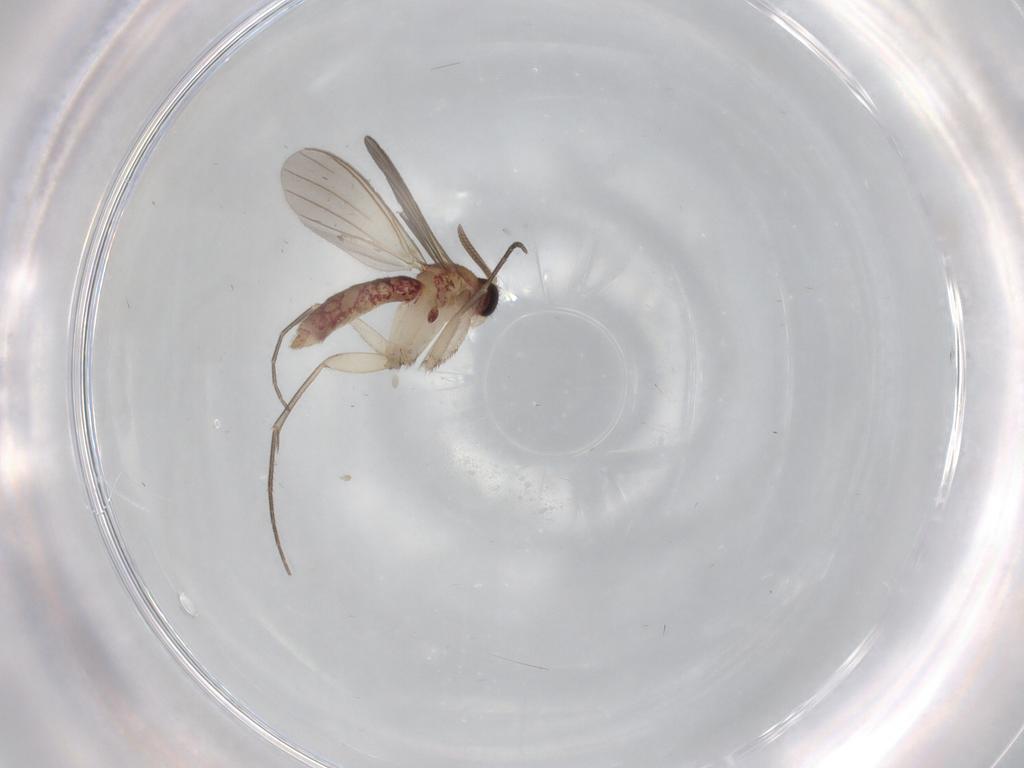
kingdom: Animalia
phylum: Arthropoda
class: Insecta
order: Diptera
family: Mycetophilidae
